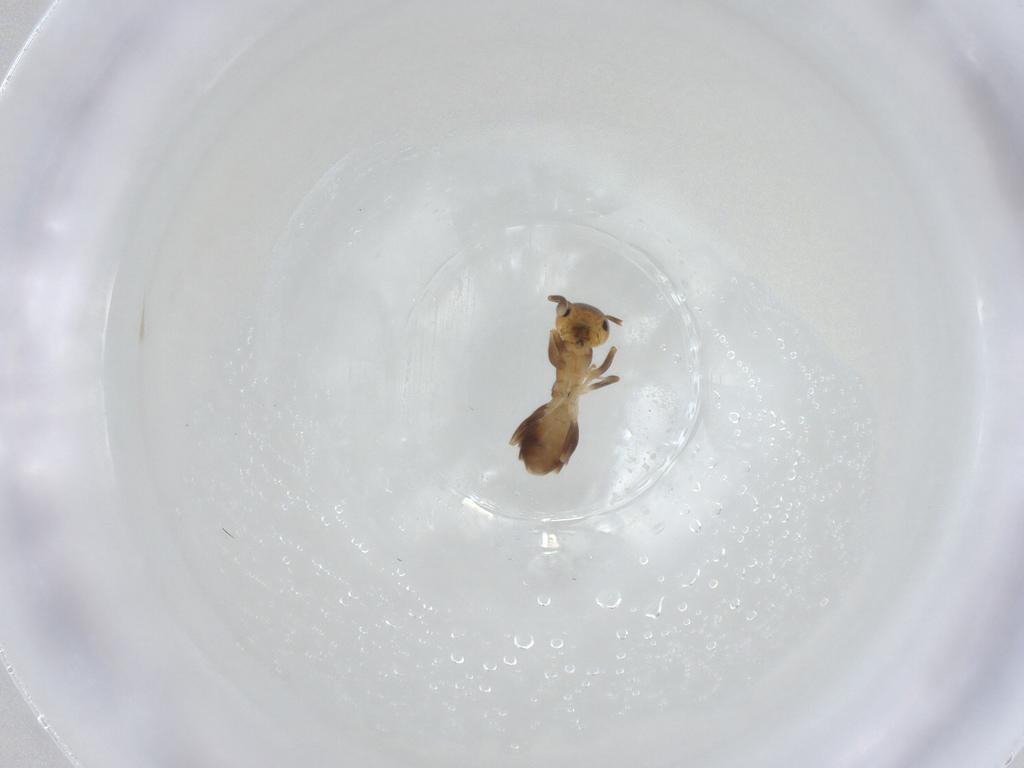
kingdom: Animalia
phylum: Arthropoda
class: Insecta
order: Hymenoptera
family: Formicidae
